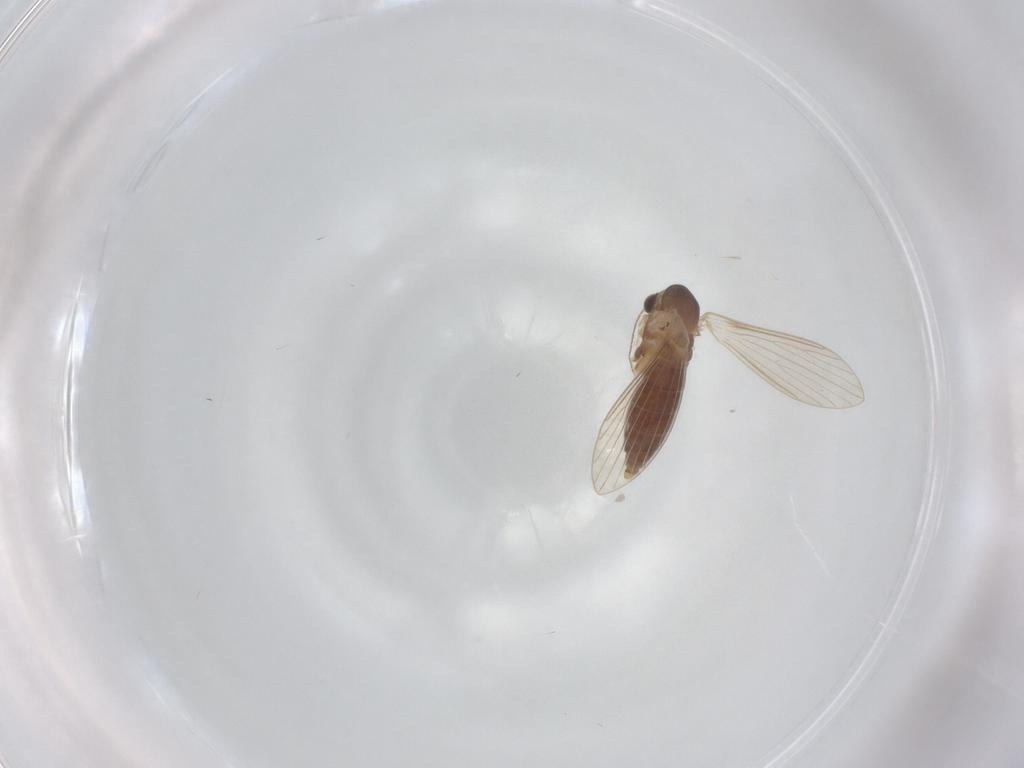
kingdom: Animalia
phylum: Arthropoda
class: Insecta
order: Diptera
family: Psychodidae
